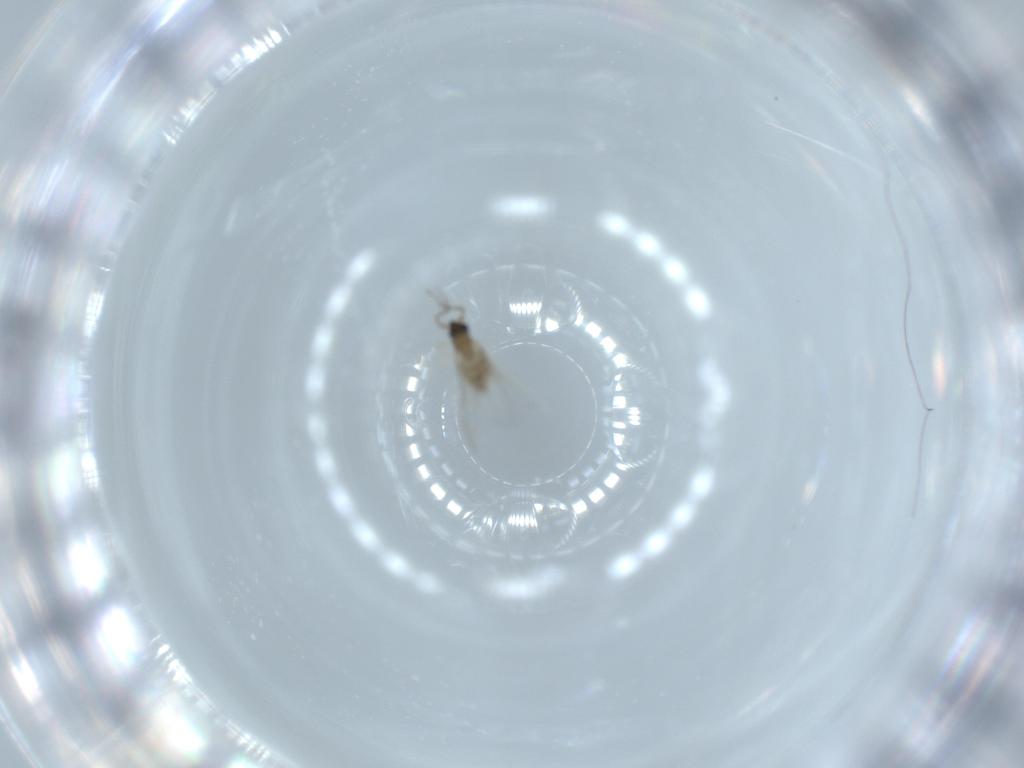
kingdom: Animalia
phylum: Arthropoda
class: Insecta
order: Diptera
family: Cecidomyiidae
